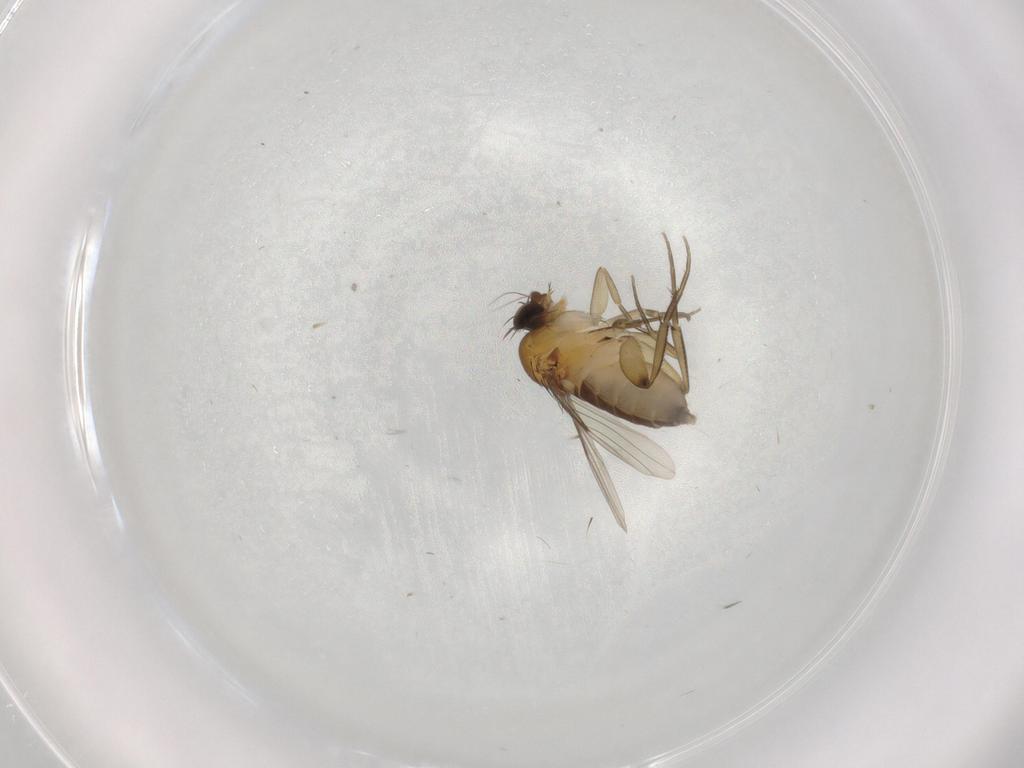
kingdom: Animalia
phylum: Arthropoda
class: Insecta
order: Diptera
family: Phoridae
